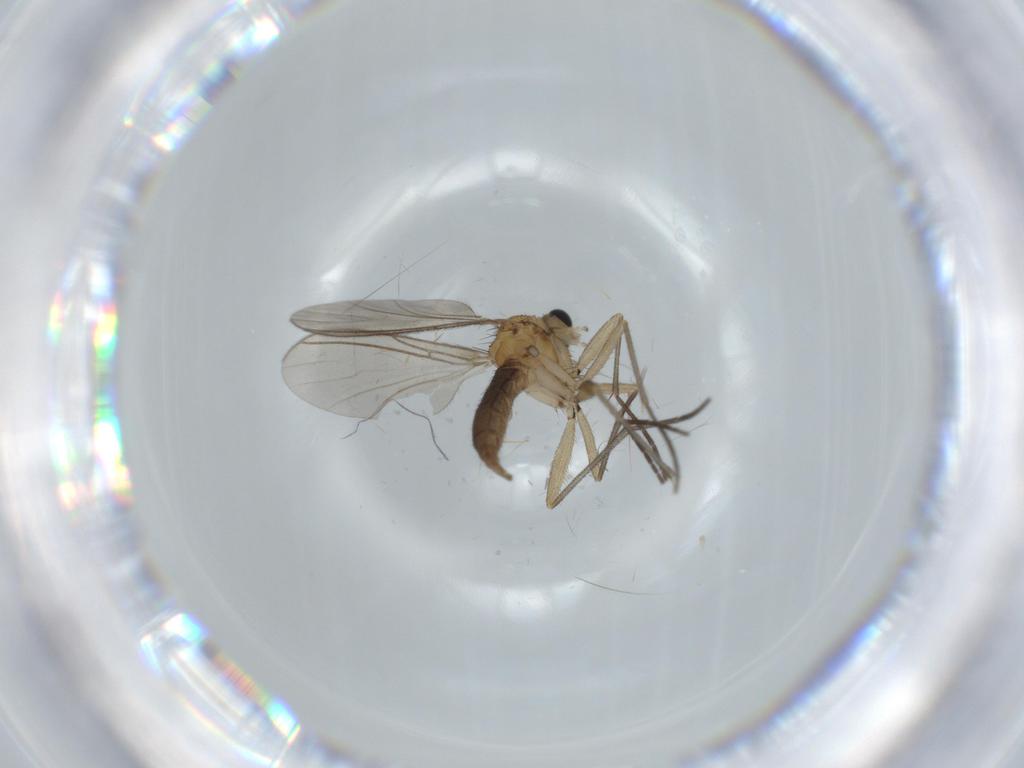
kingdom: Animalia
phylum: Arthropoda
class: Insecta
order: Diptera
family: Sciaridae
